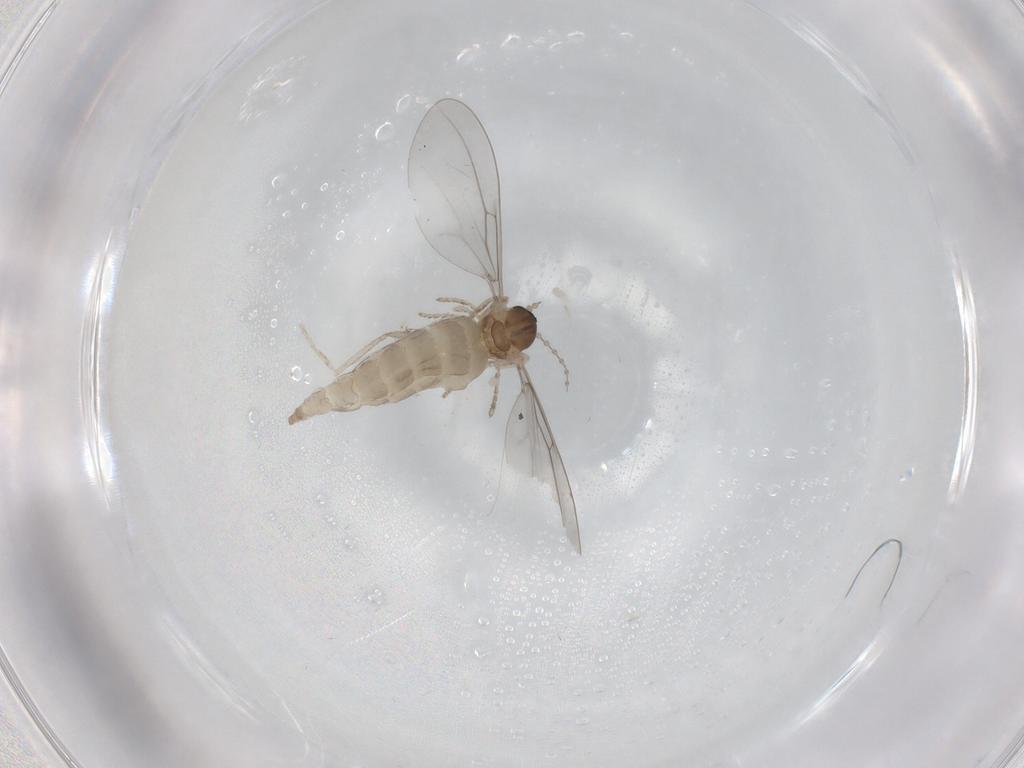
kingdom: Animalia
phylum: Arthropoda
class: Insecta
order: Diptera
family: Cecidomyiidae
